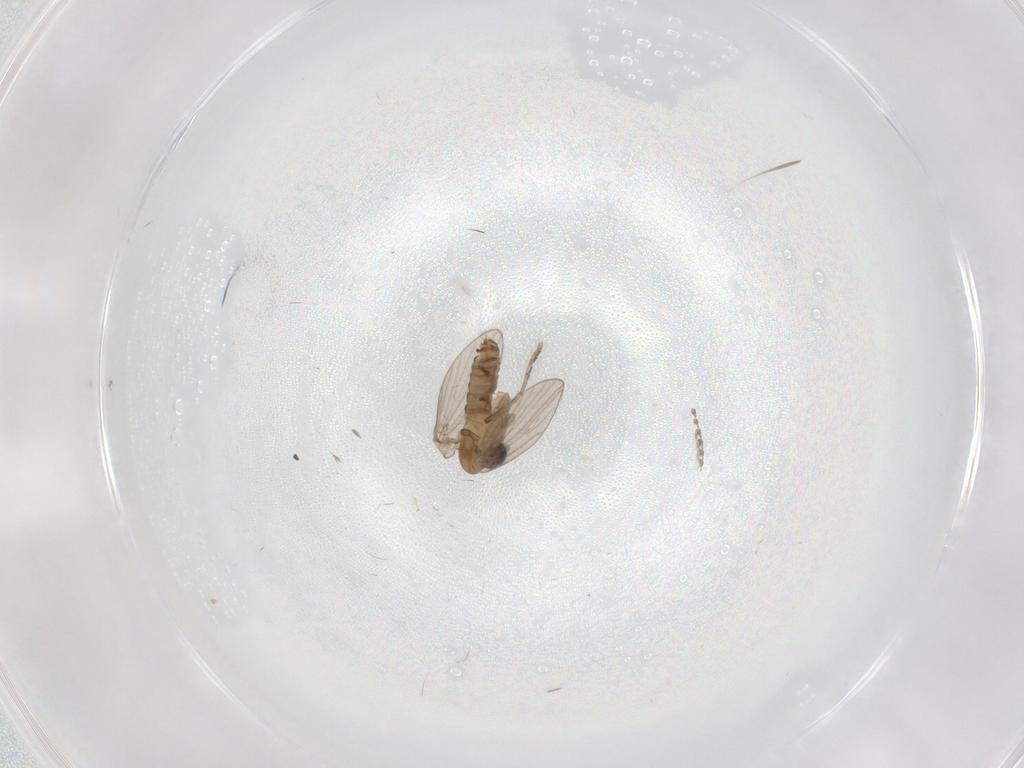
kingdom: Animalia
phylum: Arthropoda
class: Insecta
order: Diptera
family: Psychodidae
